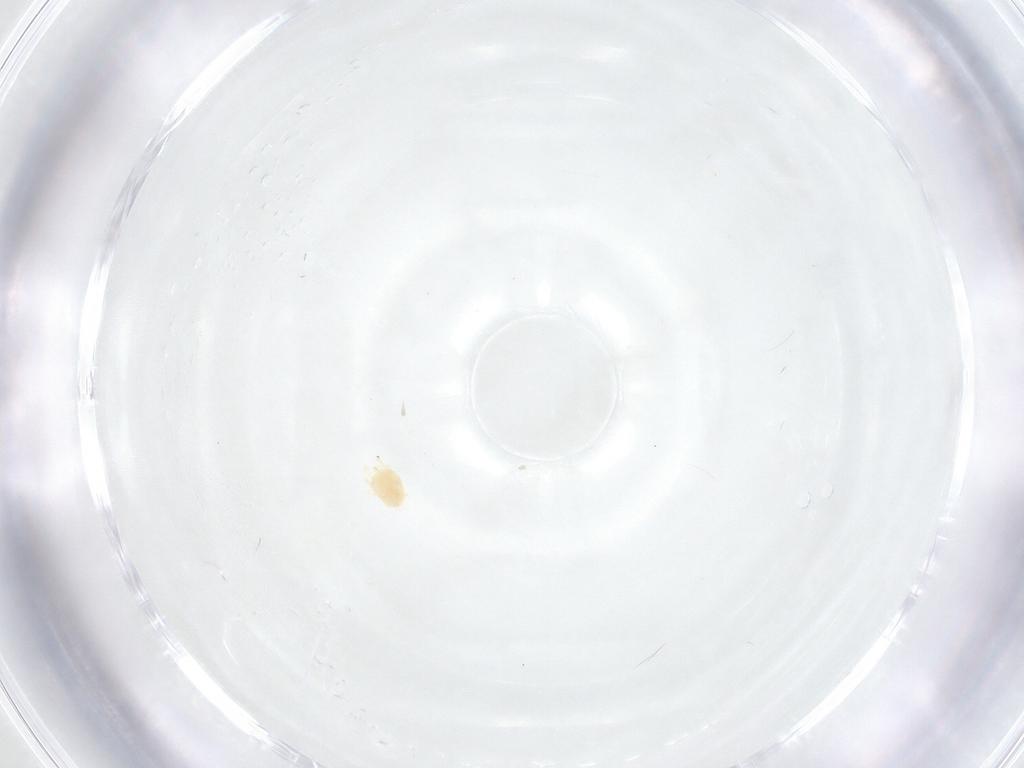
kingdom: Animalia
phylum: Arthropoda
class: Arachnida
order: Trombidiformes
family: Tetranychidae
